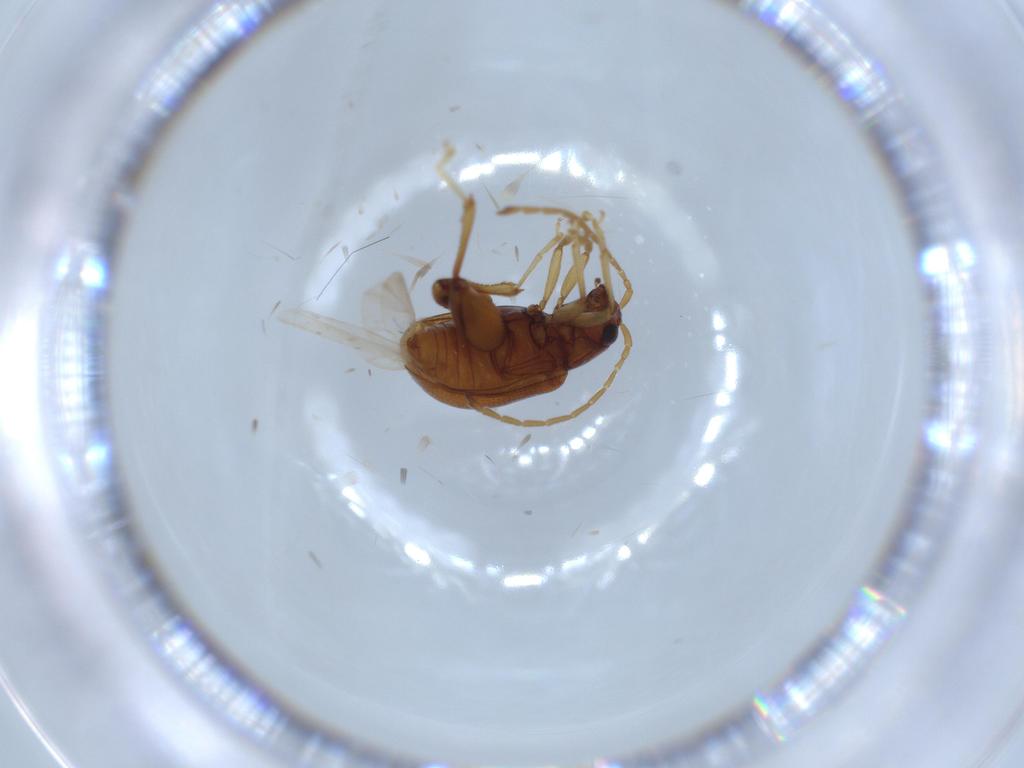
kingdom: Animalia
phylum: Arthropoda
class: Insecta
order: Coleoptera
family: Chrysomelidae
